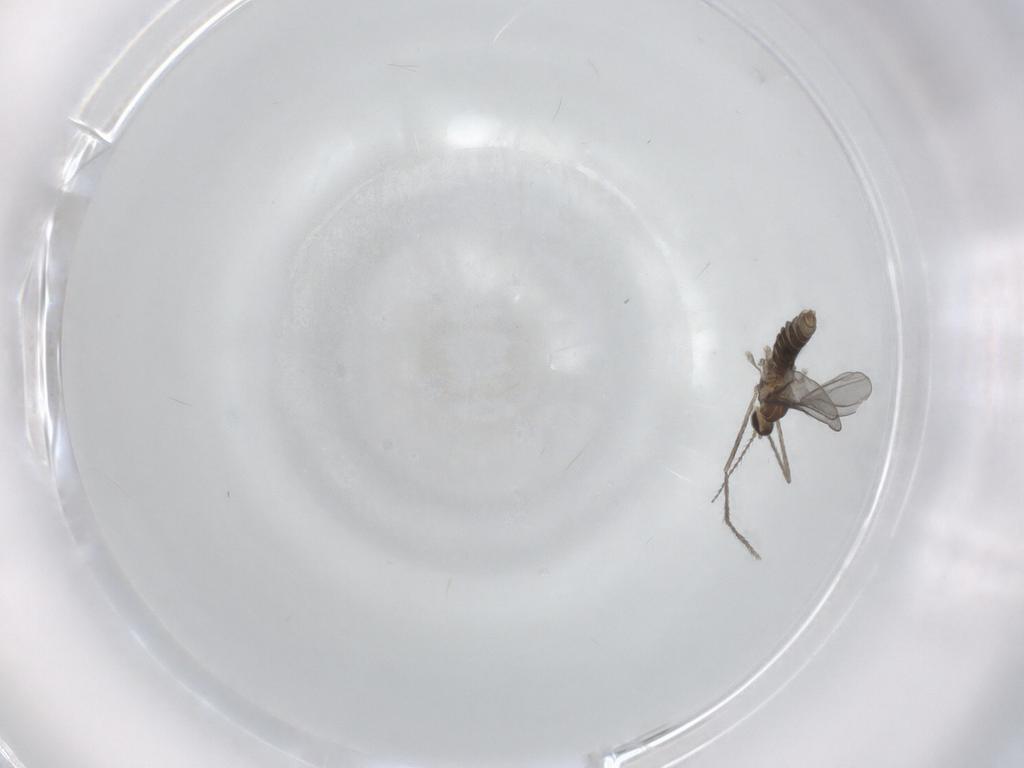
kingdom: Animalia
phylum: Arthropoda
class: Insecta
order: Diptera
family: Cecidomyiidae
